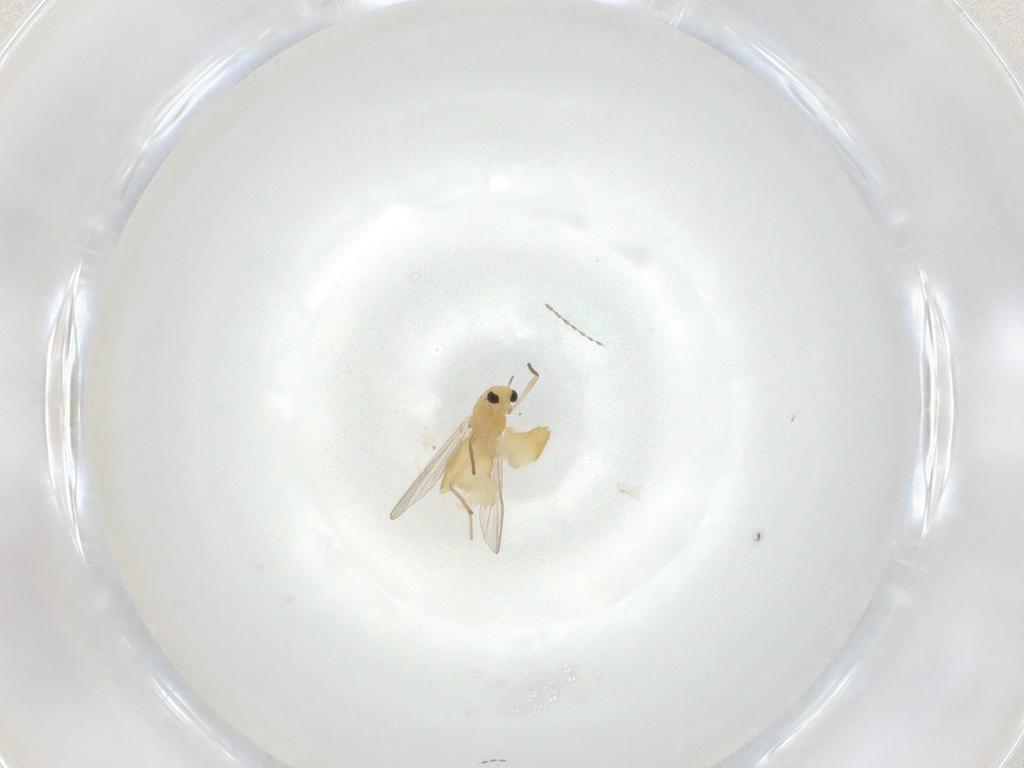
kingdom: Animalia
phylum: Arthropoda
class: Insecta
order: Diptera
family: Chironomidae
